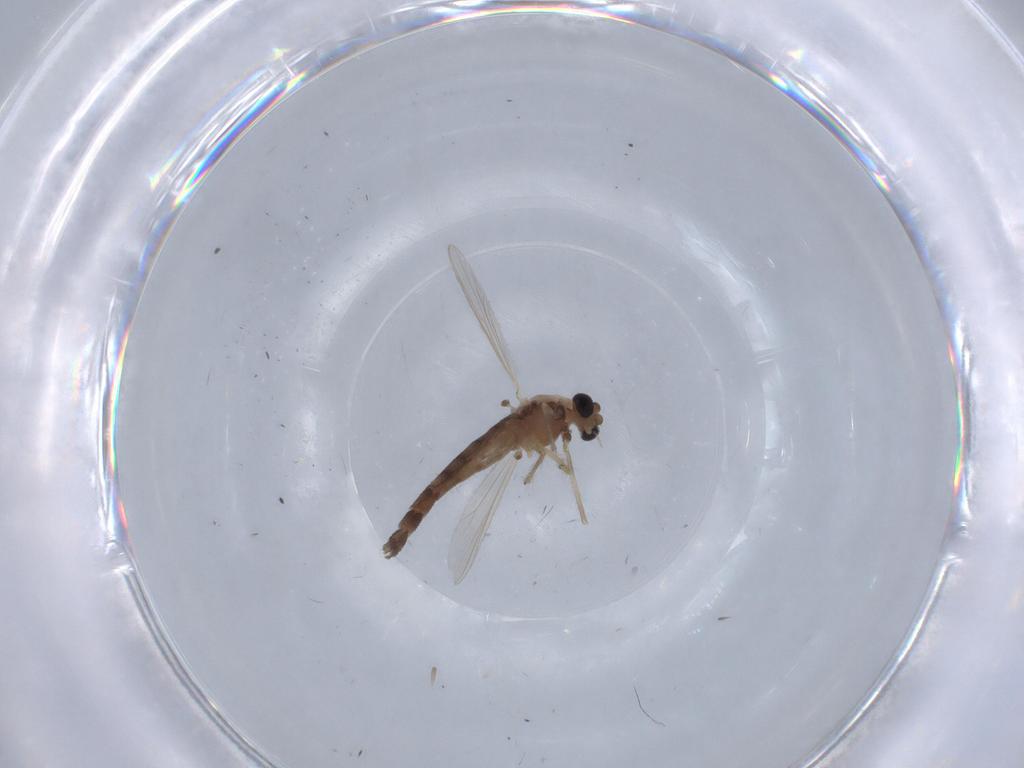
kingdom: Animalia
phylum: Arthropoda
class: Insecta
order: Diptera
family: Chironomidae
